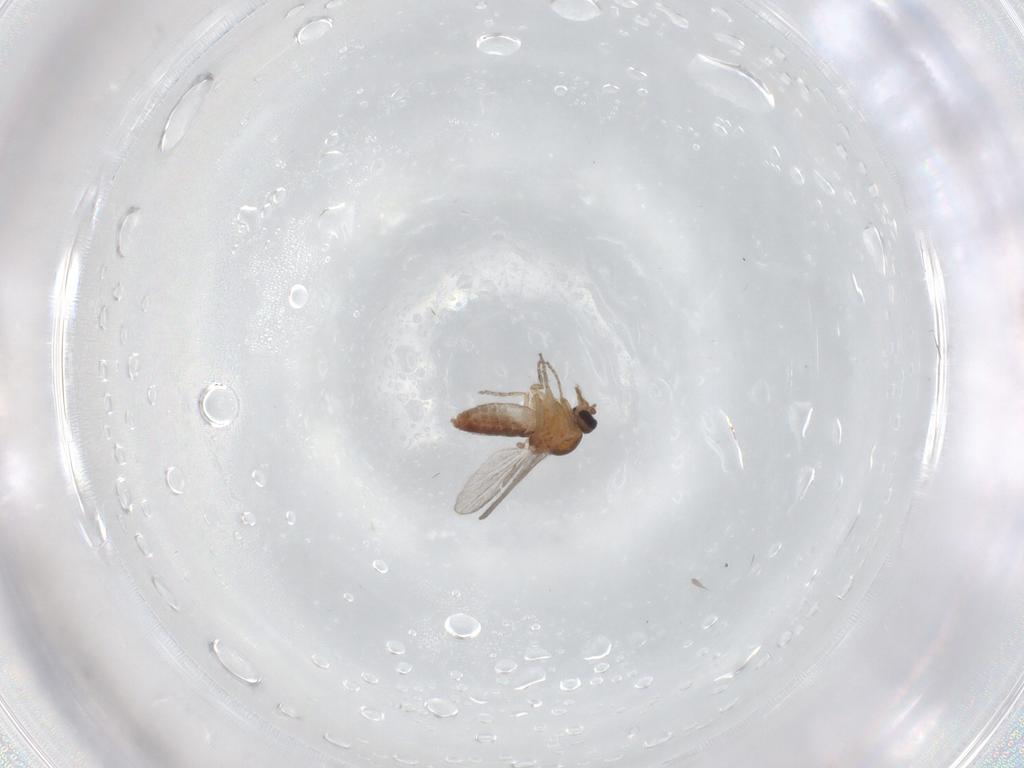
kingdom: Animalia
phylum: Arthropoda
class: Insecta
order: Diptera
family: Ceratopogonidae
